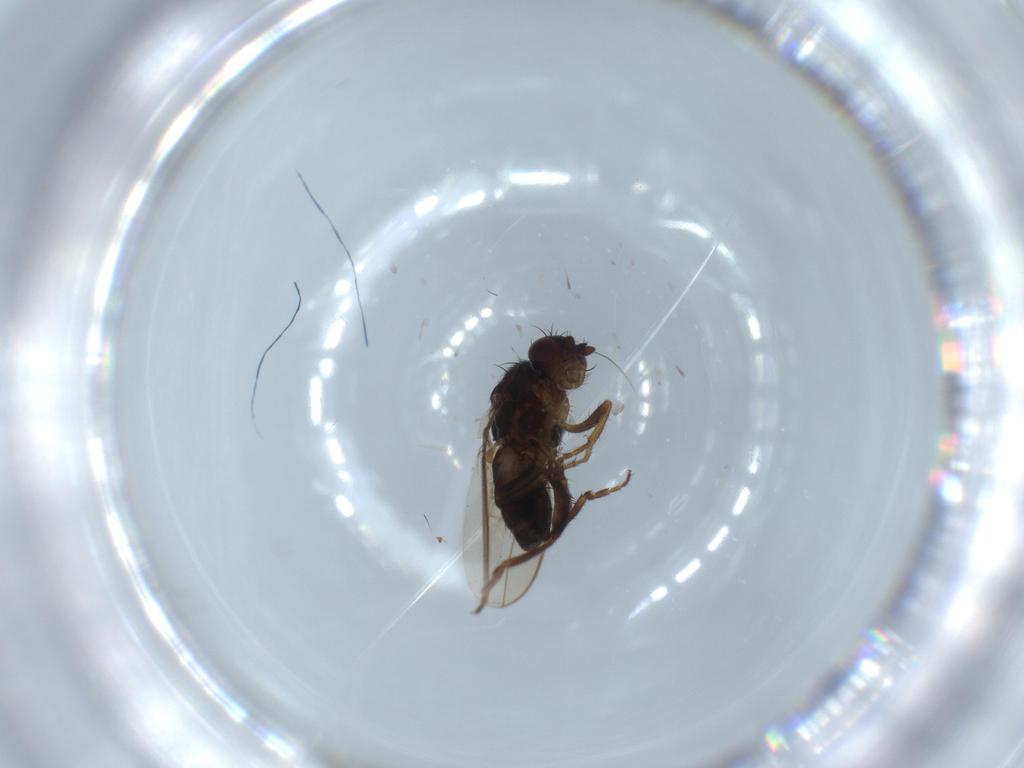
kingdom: Animalia
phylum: Arthropoda
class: Insecta
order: Diptera
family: Sphaeroceridae
